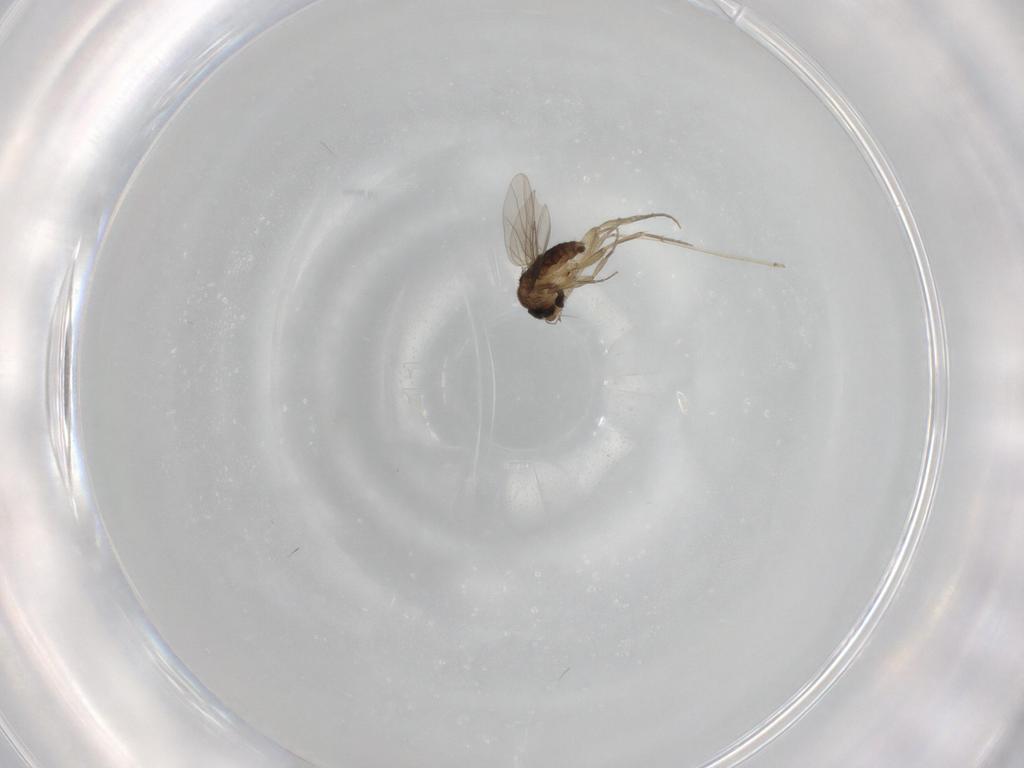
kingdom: Animalia
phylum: Arthropoda
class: Insecta
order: Diptera
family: Phoridae
